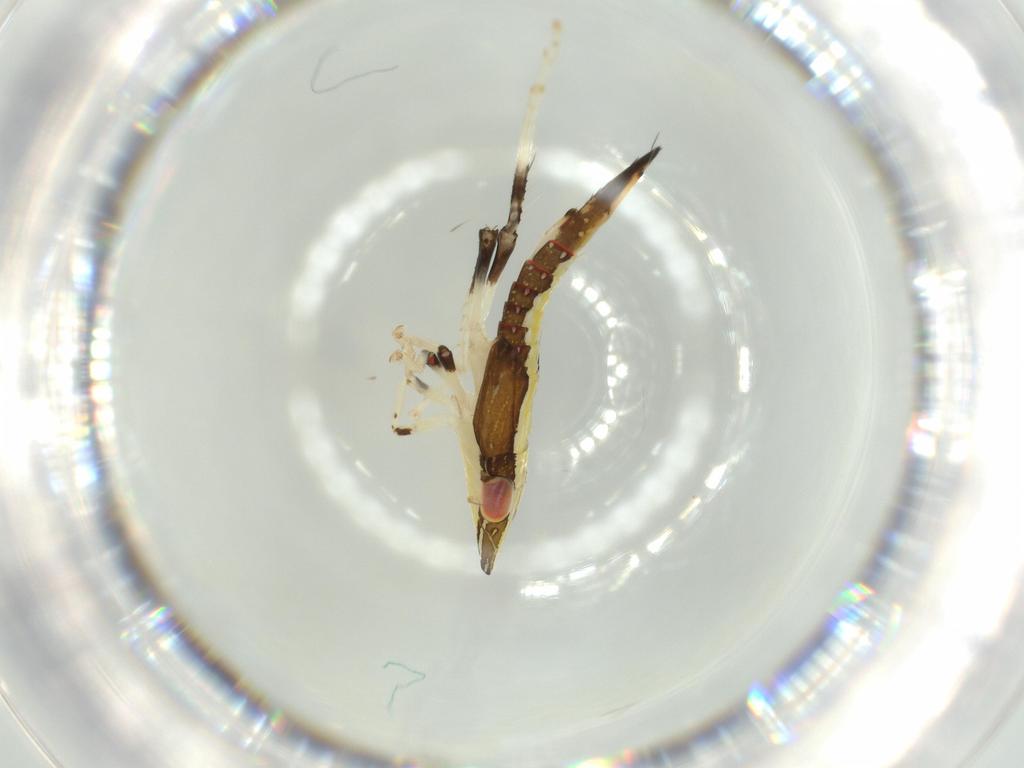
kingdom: Animalia
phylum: Arthropoda
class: Insecta
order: Hemiptera
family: Cicadellidae
